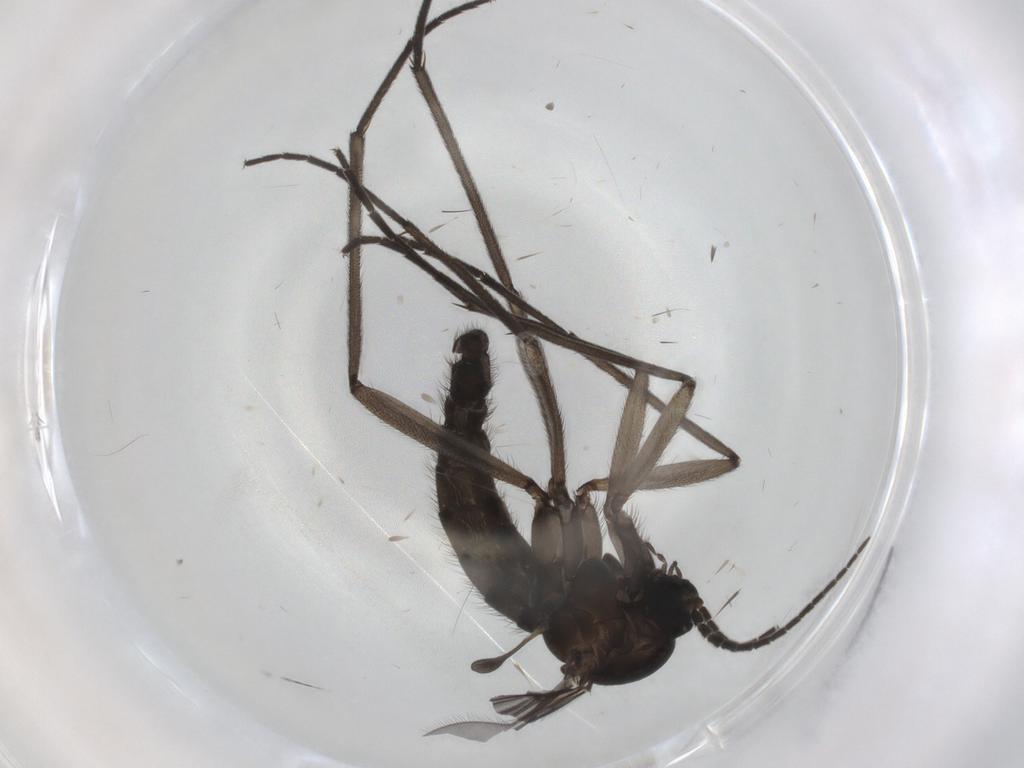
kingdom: Animalia
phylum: Arthropoda
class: Insecta
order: Diptera
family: Sciaridae
